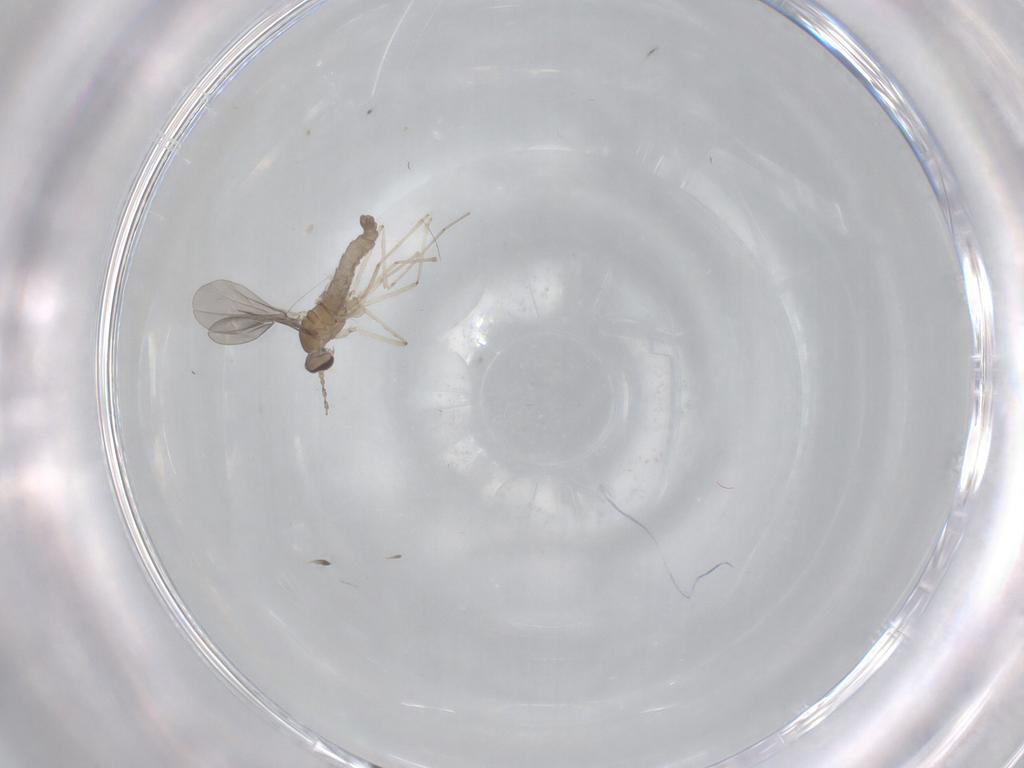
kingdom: Animalia
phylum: Arthropoda
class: Insecta
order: Diptera
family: Cecidomyiidae
